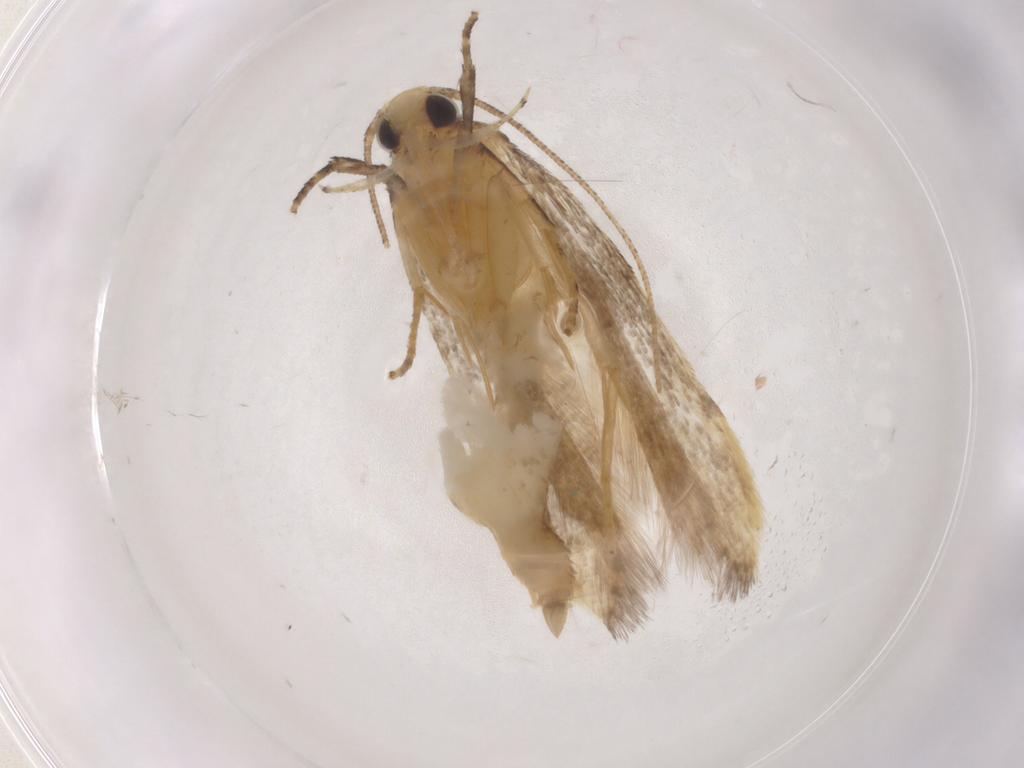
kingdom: Animalia
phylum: Arthropoda
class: Insecta
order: Lepidoptera
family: Autostichidae
